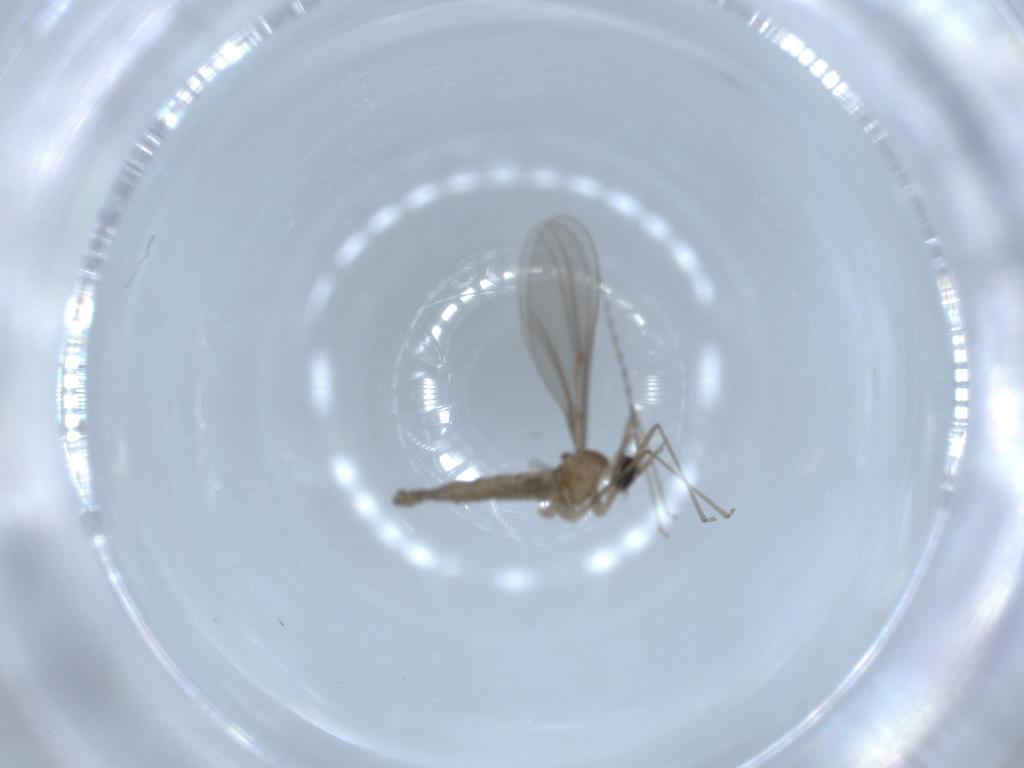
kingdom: Animalia
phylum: Arthropoda
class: Insecta
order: Diptera
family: Cecidomyiidae
